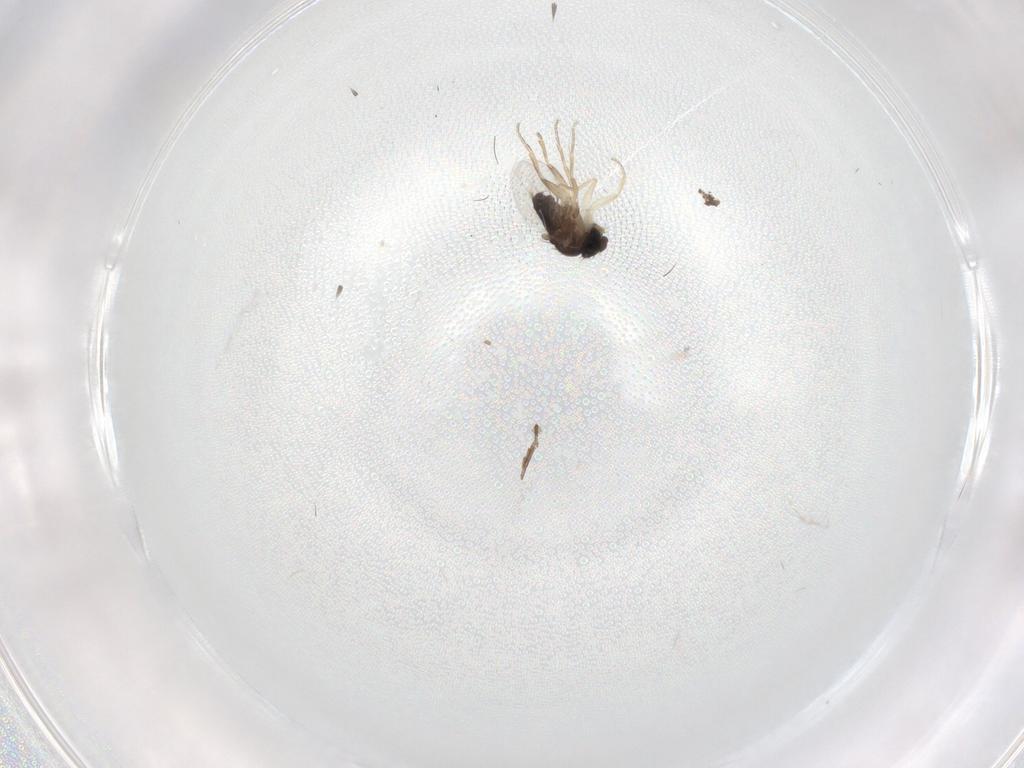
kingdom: Animalia
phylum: Arthropoda
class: Insecta
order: Diptera
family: Phoridae
